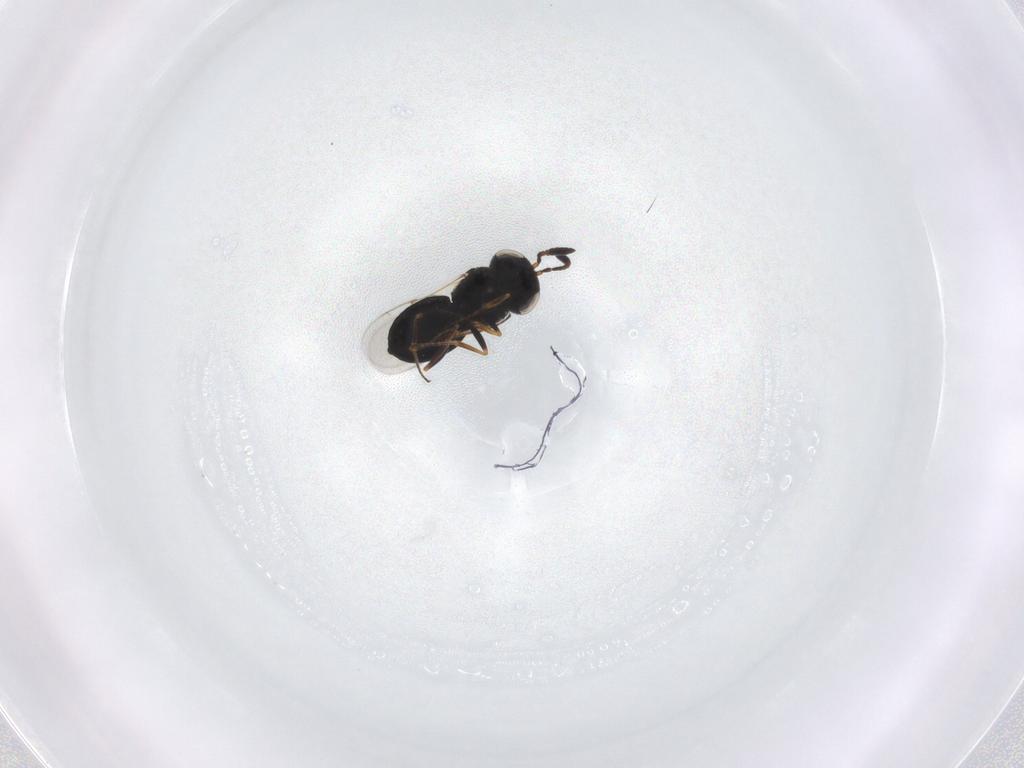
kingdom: Animalia
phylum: Arthropoda
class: Insecta
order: Hymenoptera
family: Scelionidae
